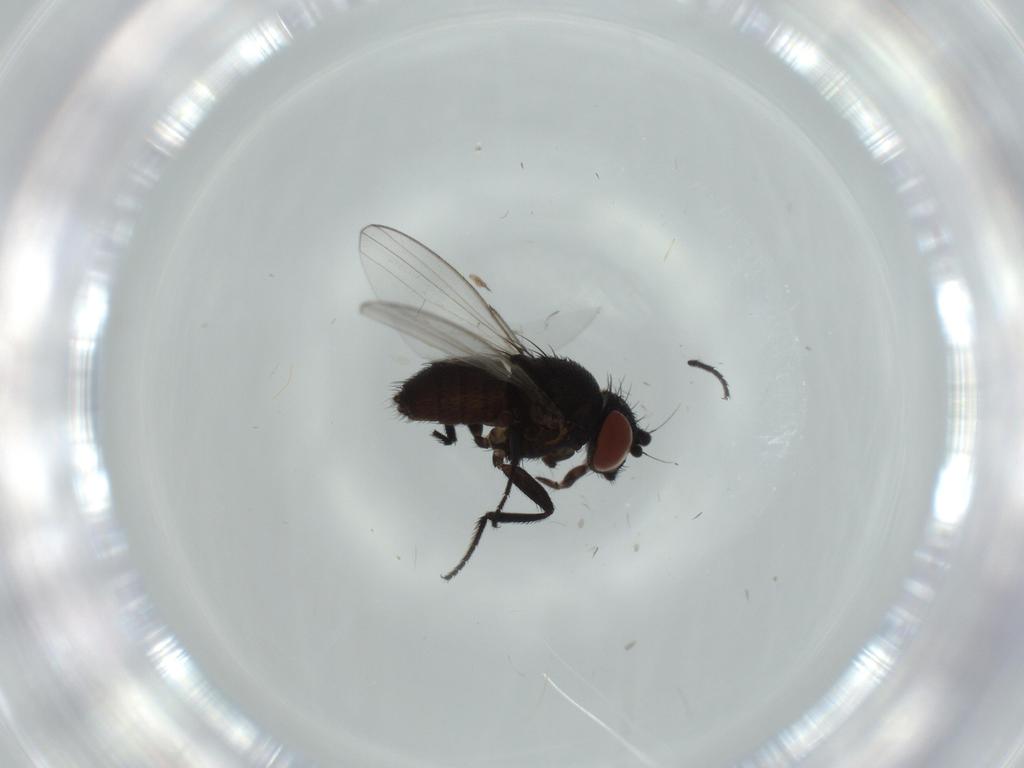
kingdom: Animalia
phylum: Arthropoda
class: Insecta
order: Diptera
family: Milichiidae
